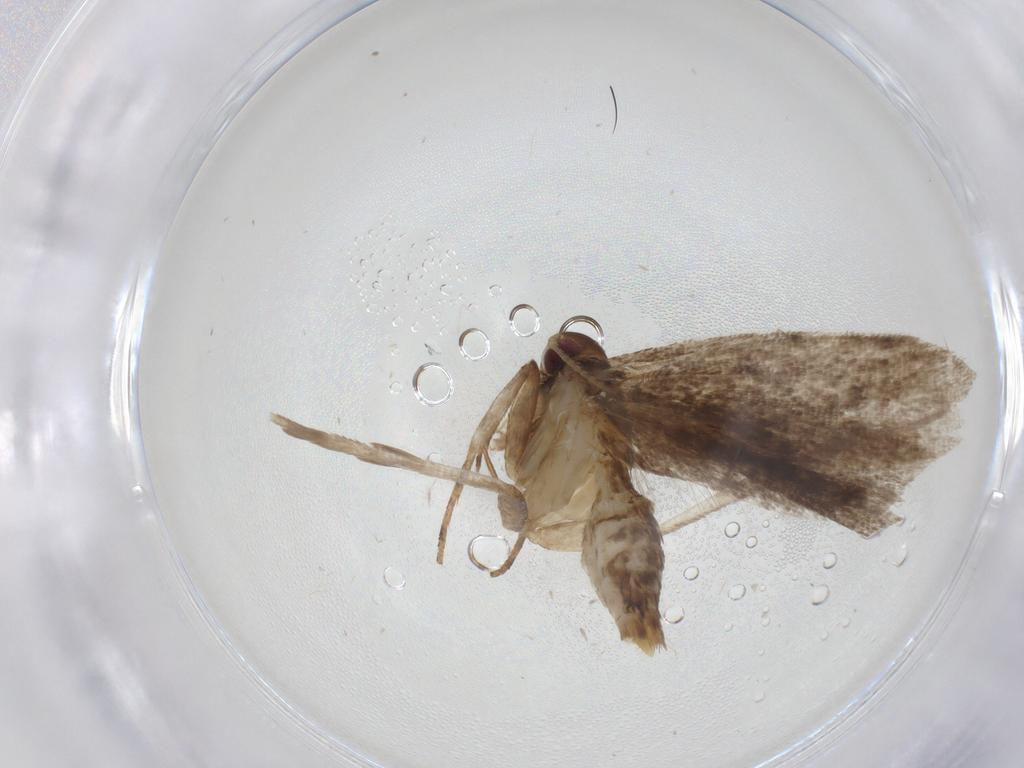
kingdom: Animalia
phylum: Arthropoda
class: Insecta
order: Lepidoptera
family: Gelechiidae
